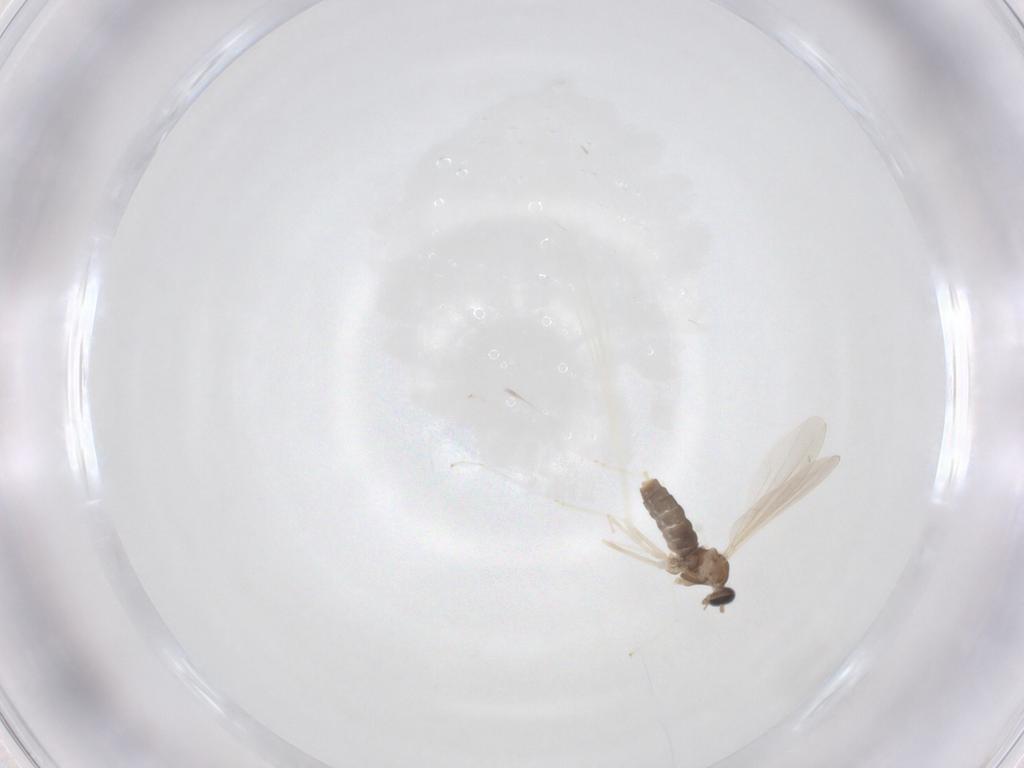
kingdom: Animalia
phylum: Arthropoda
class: Insecta
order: Diptera
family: Cecidomyiidae
